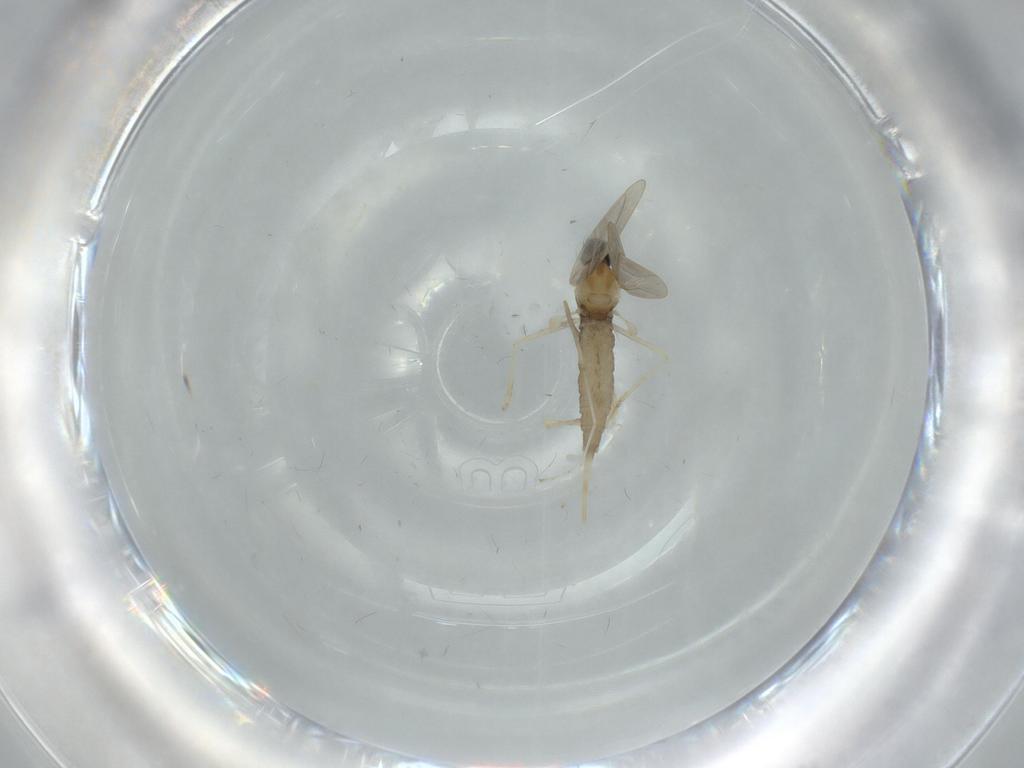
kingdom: Animalia
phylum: Arthropoda
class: Insecta
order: Diptera
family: Cecidomyiidae
